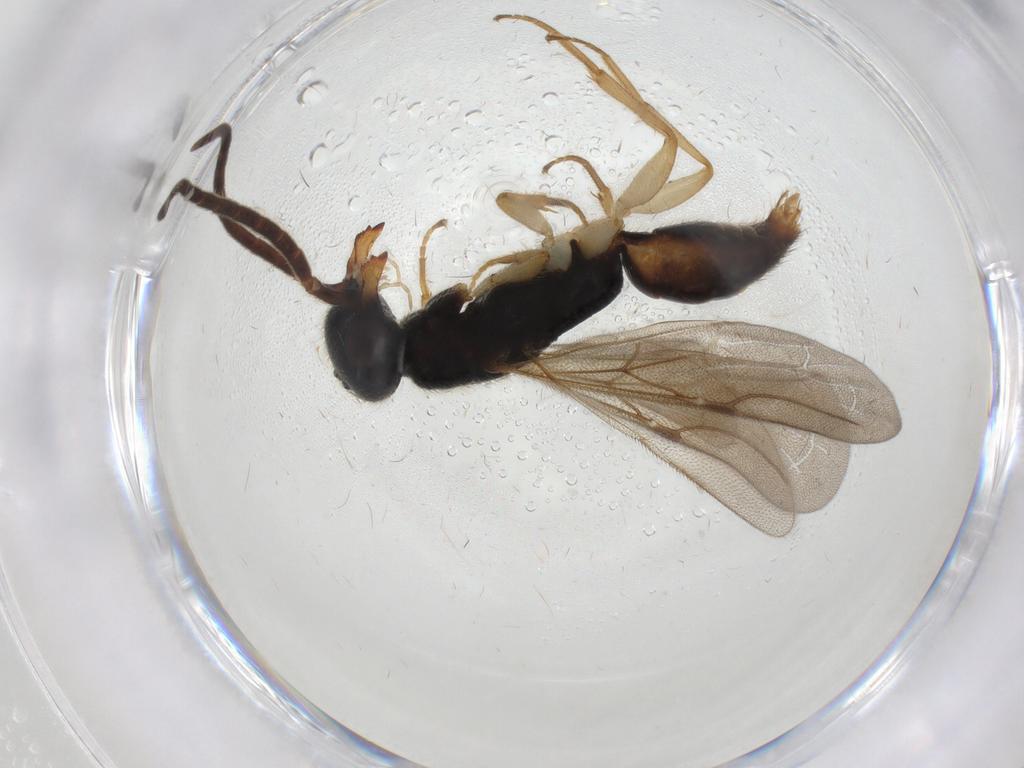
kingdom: Animalia
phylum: Arthropoda
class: Insecta
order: Hymenoptera
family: Bethylidae
